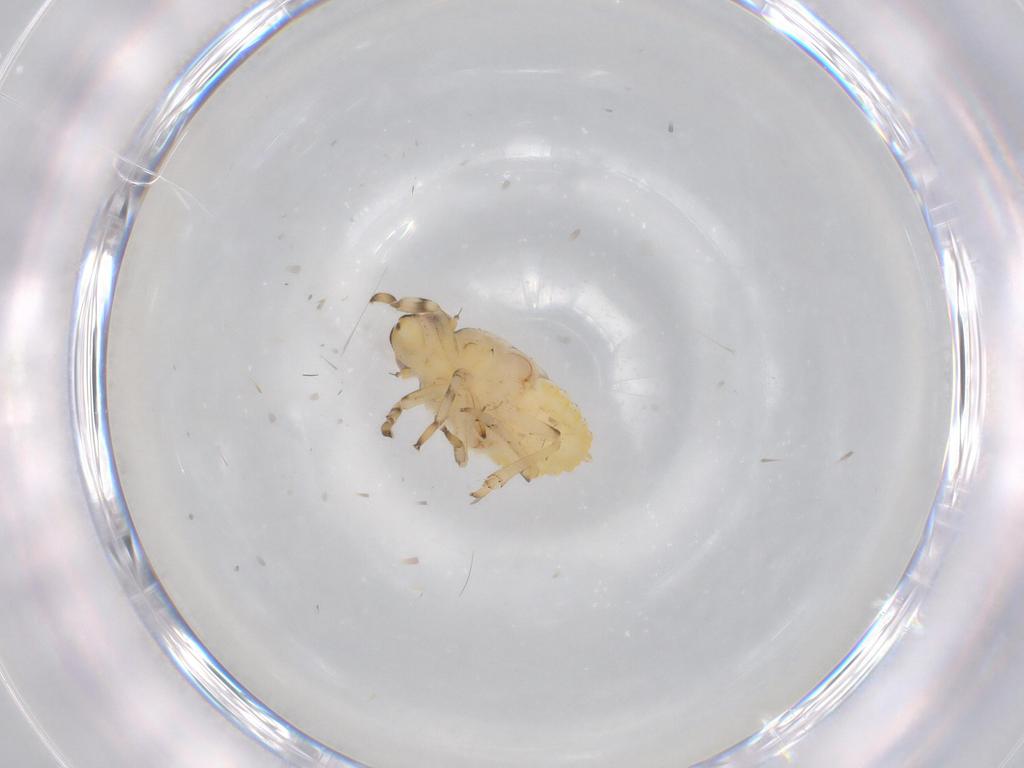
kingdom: Animalia
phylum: Arthropoda
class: Insecta
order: Hemiptera
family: Issidae
